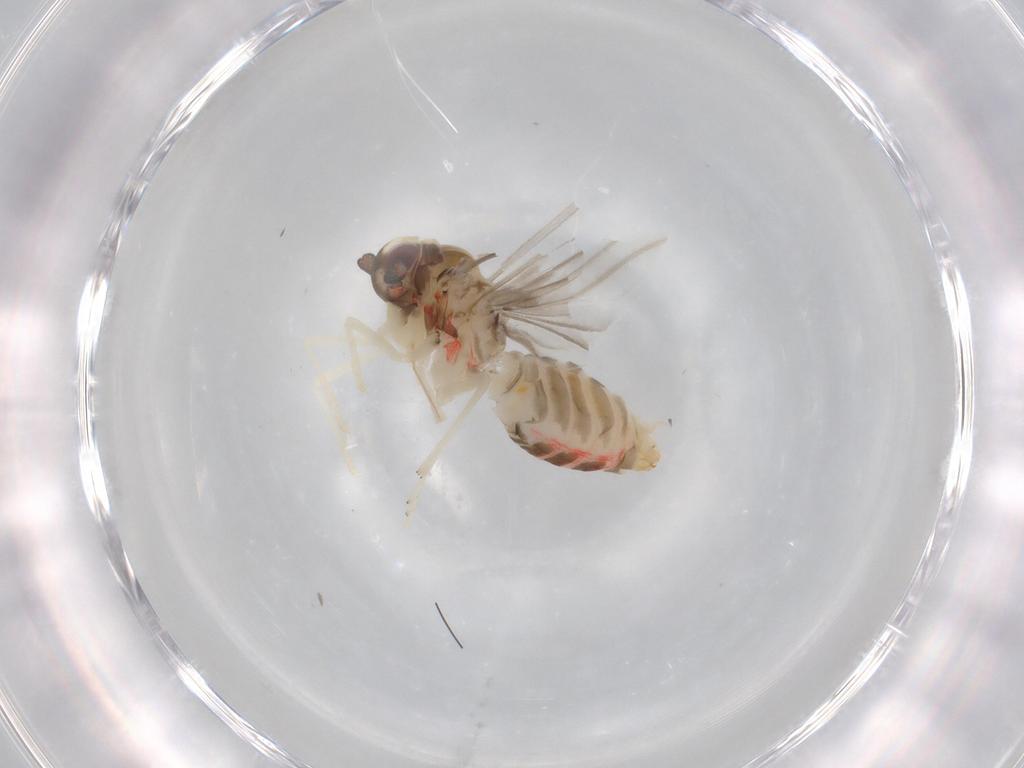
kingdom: Animalia
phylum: Arthropoda
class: Insecta
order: Hemiptera
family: Derbidae
